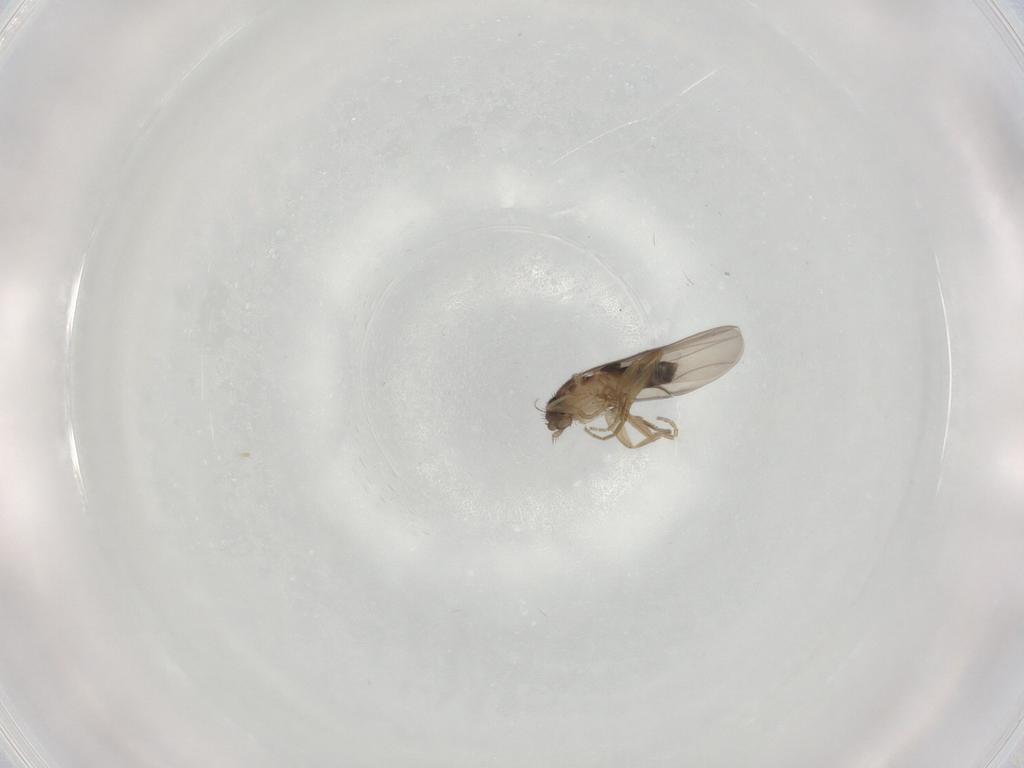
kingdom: Animalia
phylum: Arthropoda
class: Insecta
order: Diptera
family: Phoridae
